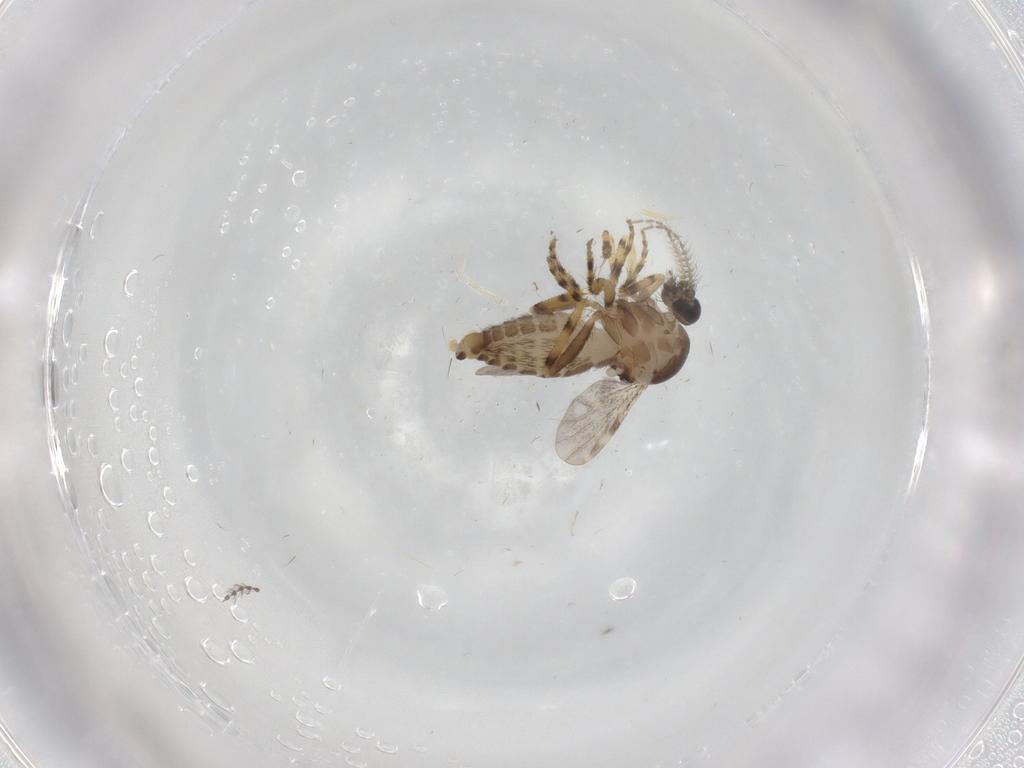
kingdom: Animalia
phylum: Arthropoda
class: Insecta
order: Diptera
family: Ceratopogonidae
